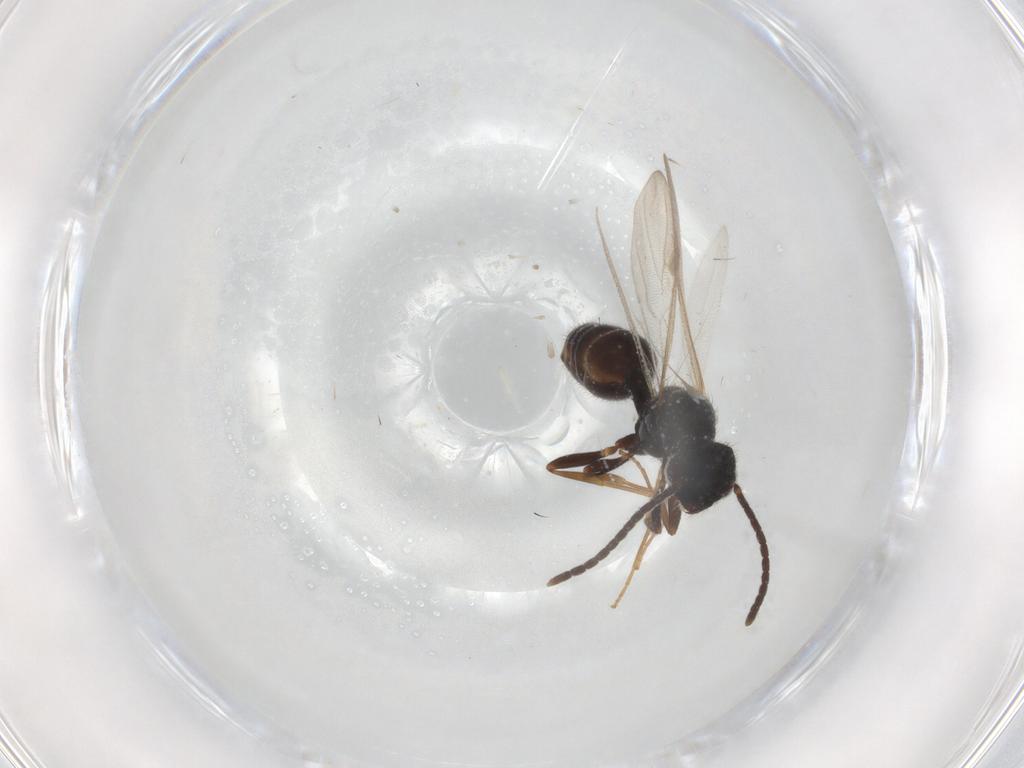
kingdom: Animalia
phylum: Arthropoda
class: Insecta
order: Hymenoptera
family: Formicidae
